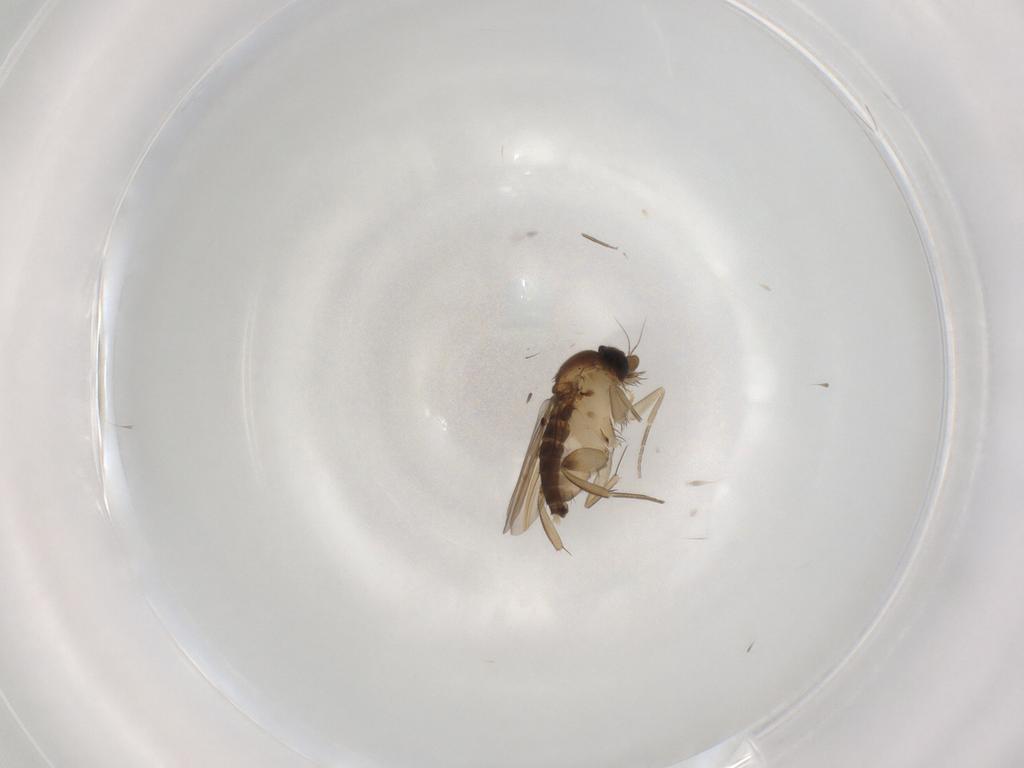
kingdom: Animalia
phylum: Arthropoda
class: Insecta
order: Diptera
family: Phoridae
